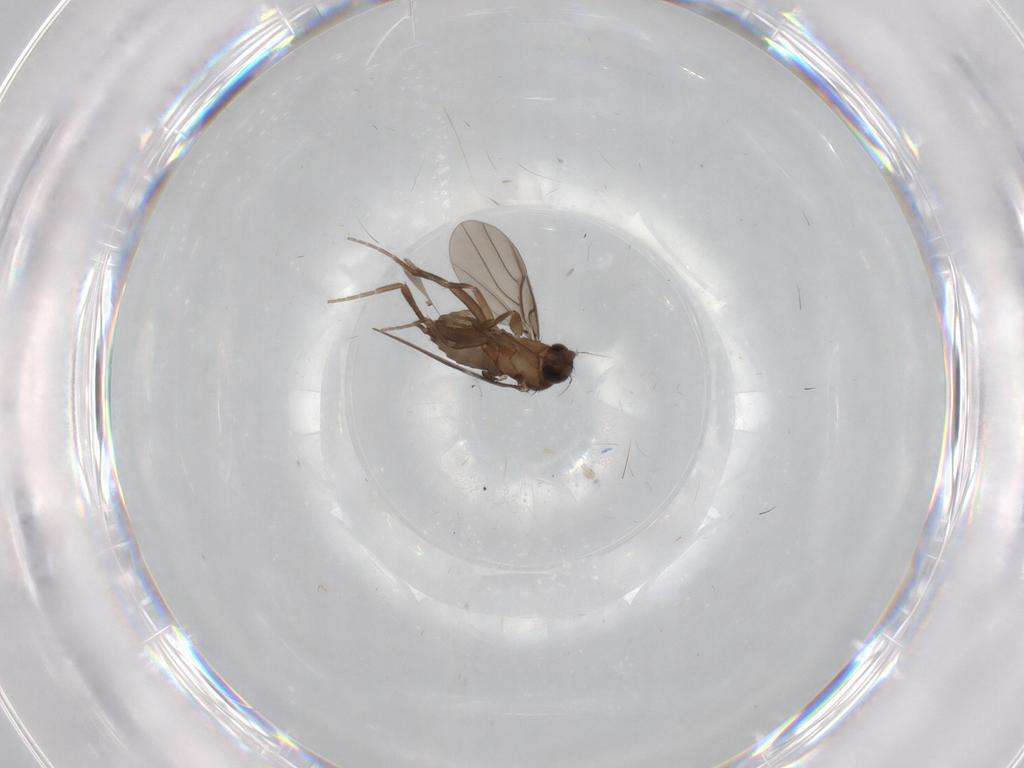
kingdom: Animalia
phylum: Arthropoda
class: Insecta
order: Diptera
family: Phoridae
